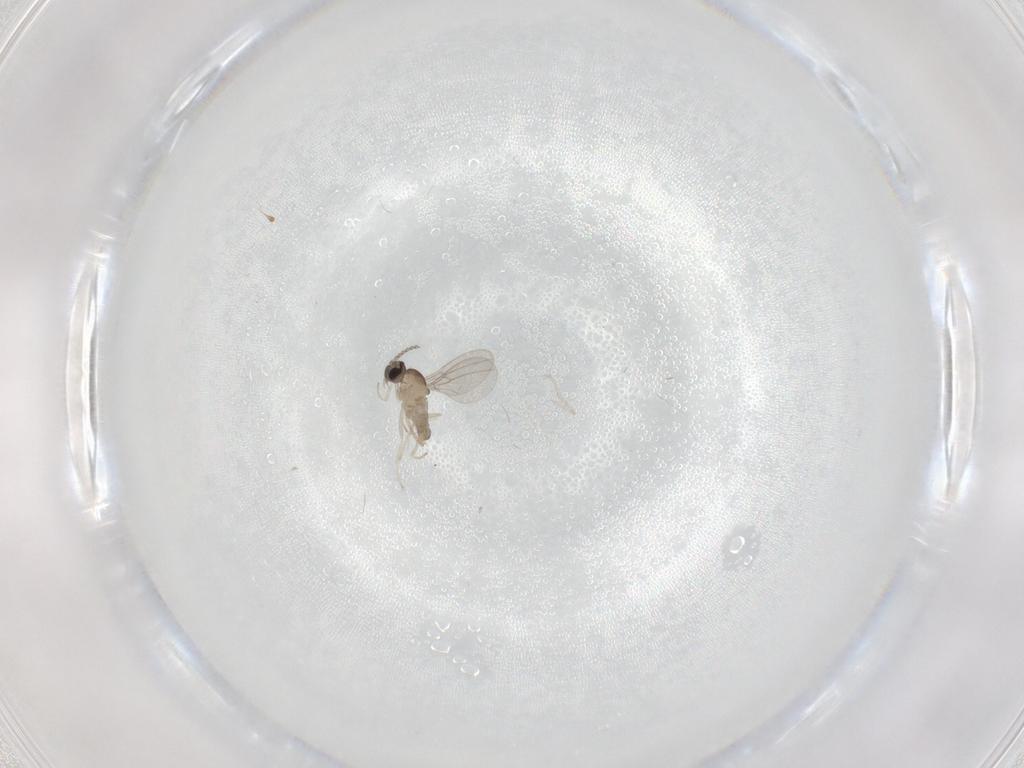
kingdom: Animalia
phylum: Arthropoda
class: Insecta
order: Diptera
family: Cecidomyiidae
